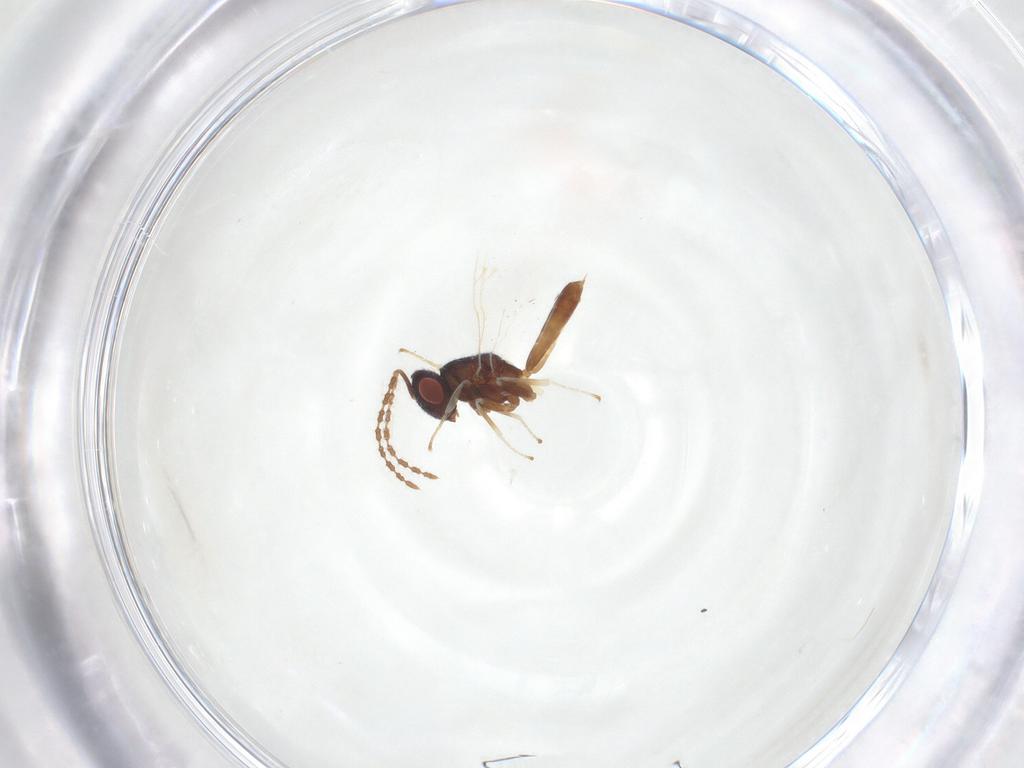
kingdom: Animalia
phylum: Arthropoda
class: Insecta
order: Hymenoptera
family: Pteromalidae
